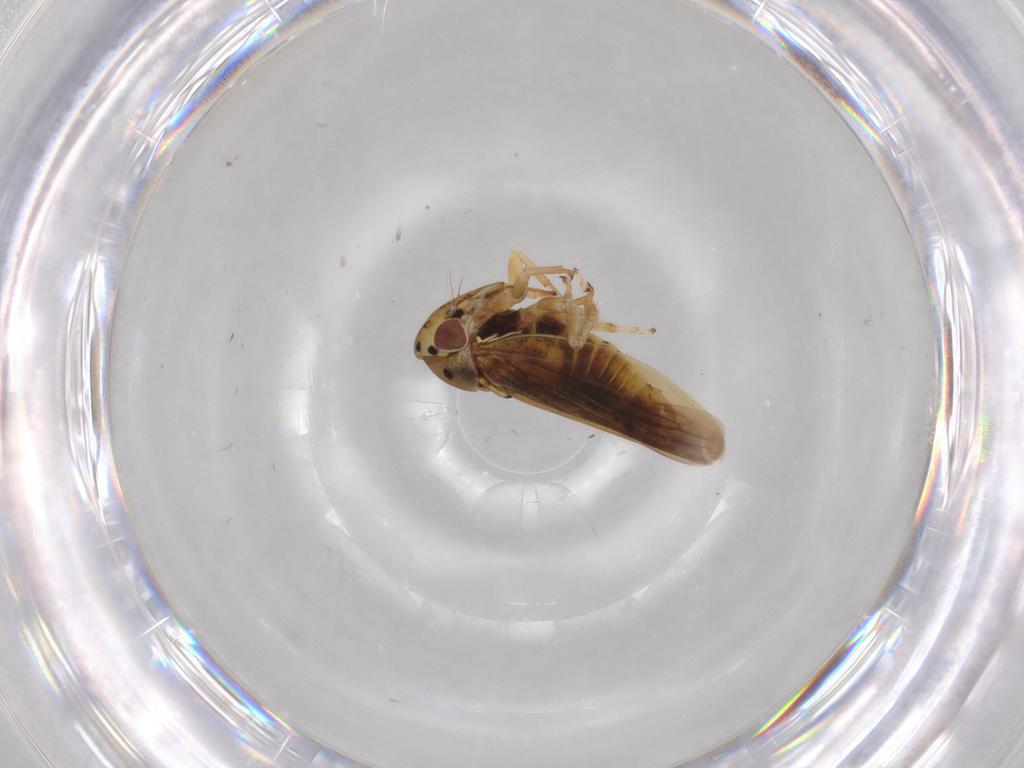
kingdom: Animalia
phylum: Arthropoda
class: Insecta
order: Hemiptera
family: Cicadellidae
